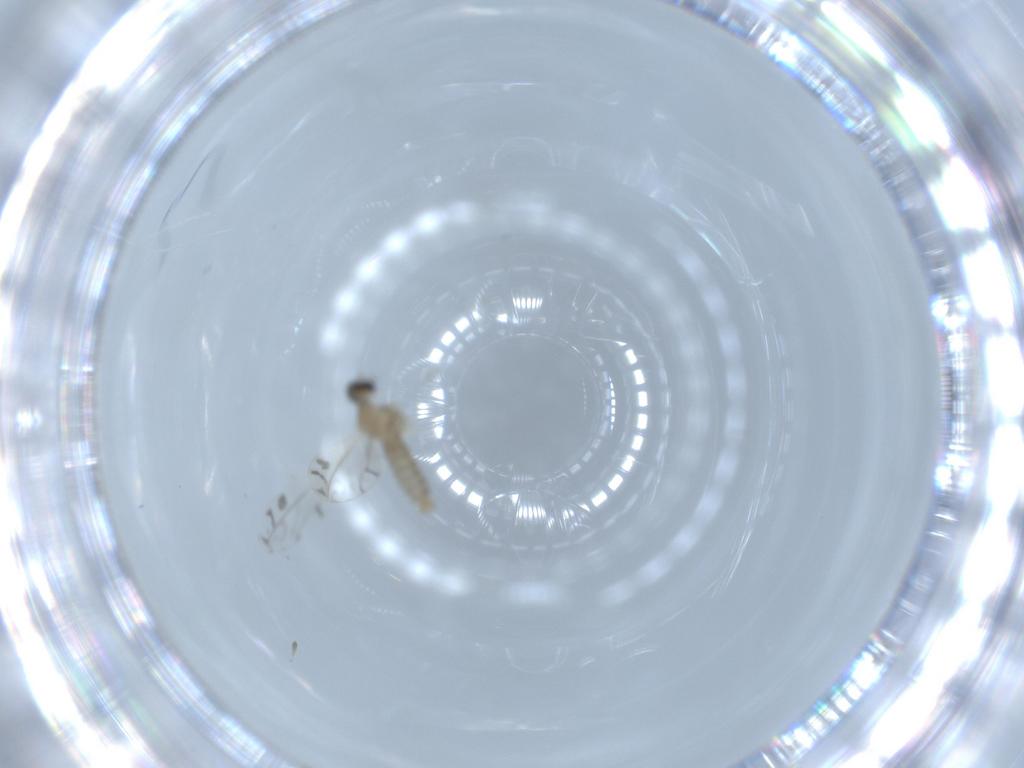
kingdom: Animalia
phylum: Arthropoda
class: Insecta
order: Diptera
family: Cecidomyiidae
